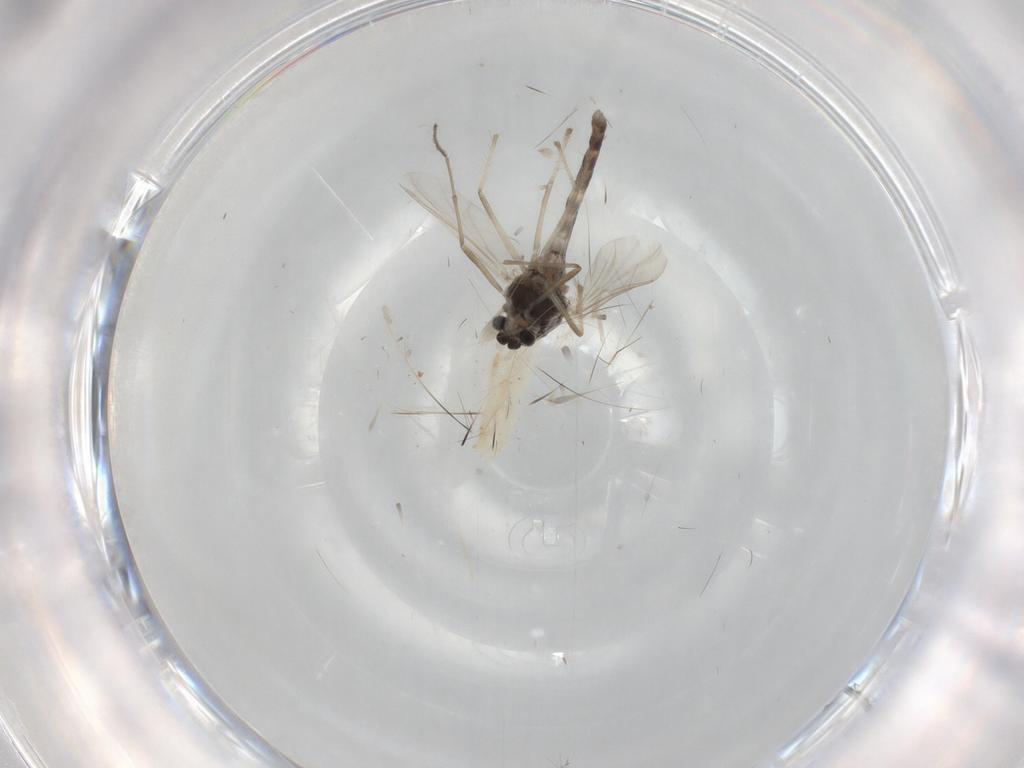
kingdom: Animalia
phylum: Arthropoda
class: Insecta
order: Diptera
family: Chironomidae
